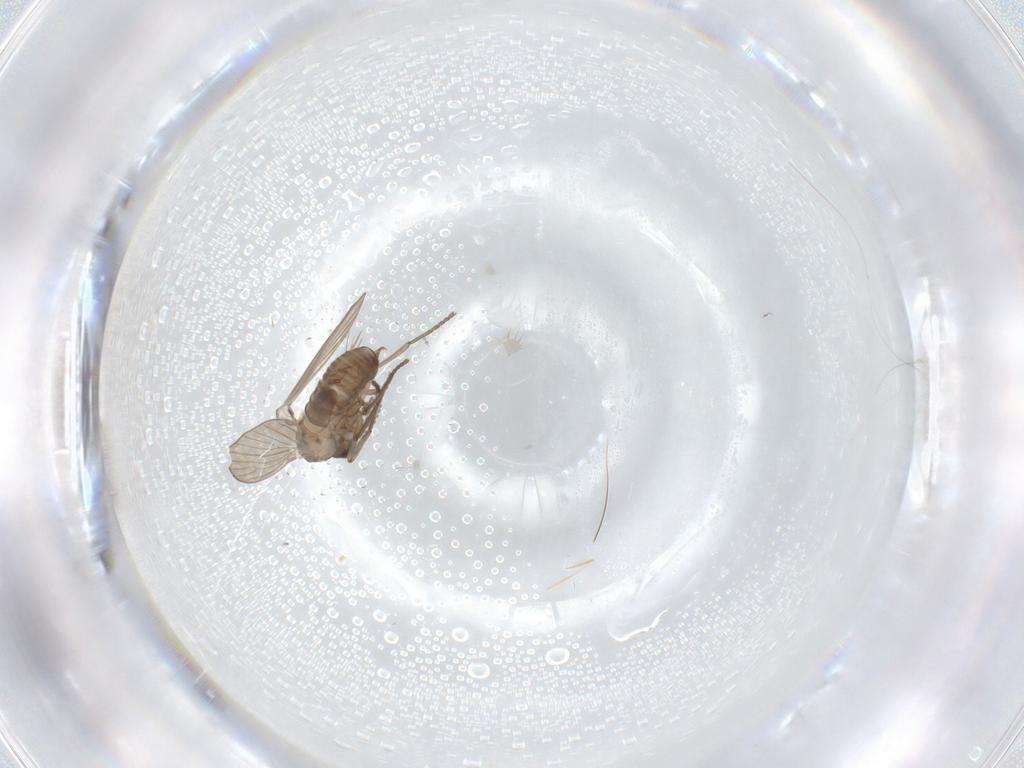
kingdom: Animalia
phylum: Arthropoda
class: Insecta
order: Diptera
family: Psychodidae
